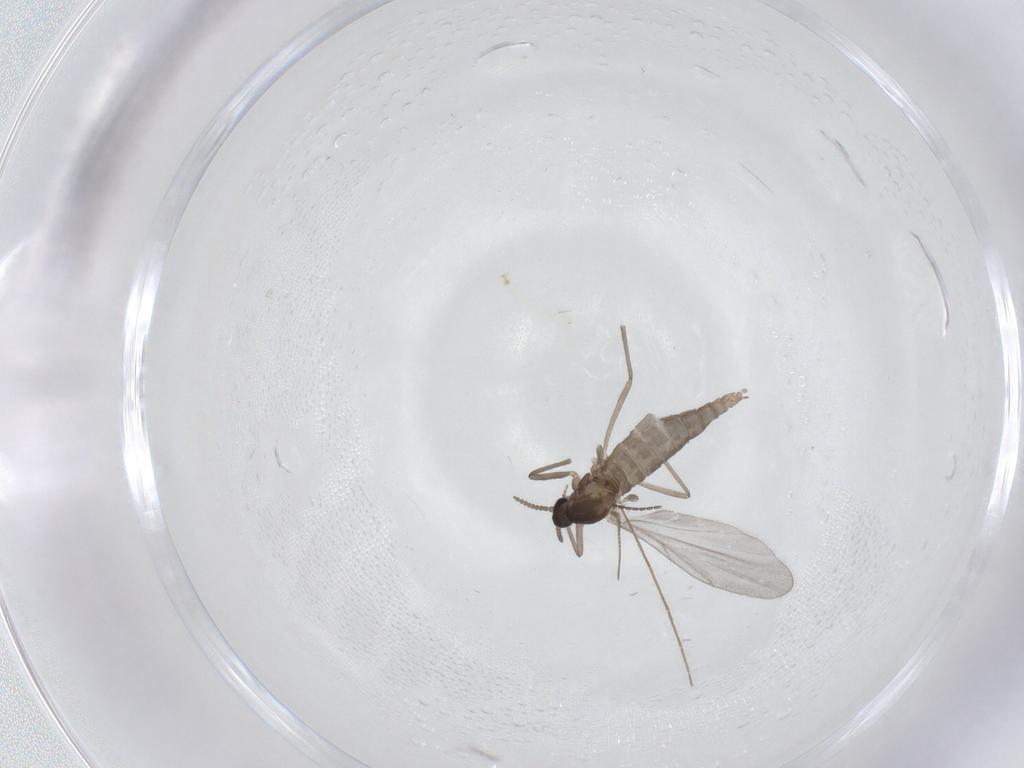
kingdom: Animalia
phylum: Arthropoda
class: Insecta
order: Diptera
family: Cecidomyiidae
